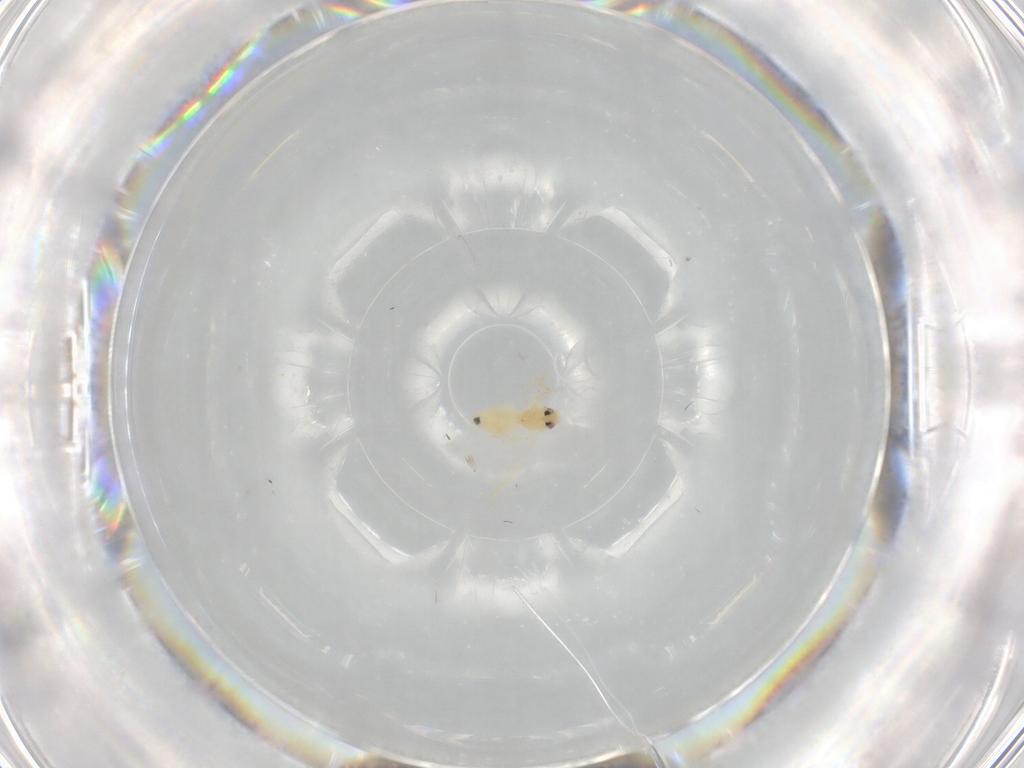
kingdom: Animalia
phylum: Arthropoda
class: Insecta
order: Hemiptera
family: Aleyrodidae
